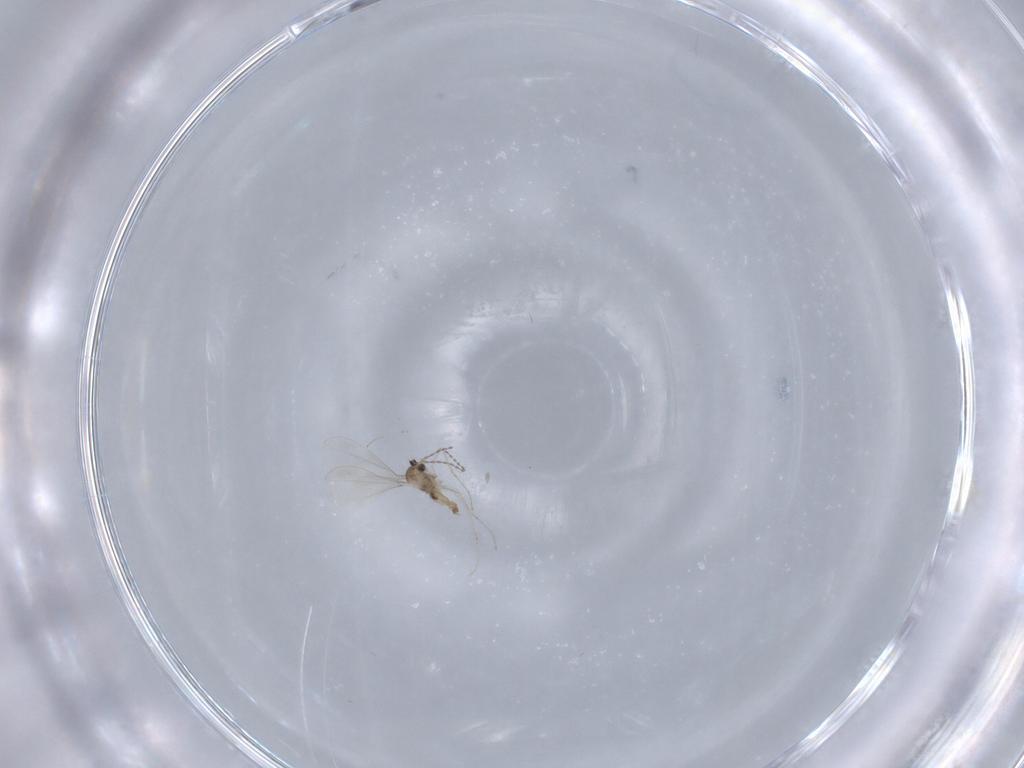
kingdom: Animalia
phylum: Arthropoda
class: Insecta
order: Diptera
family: Cecidomyiidae
